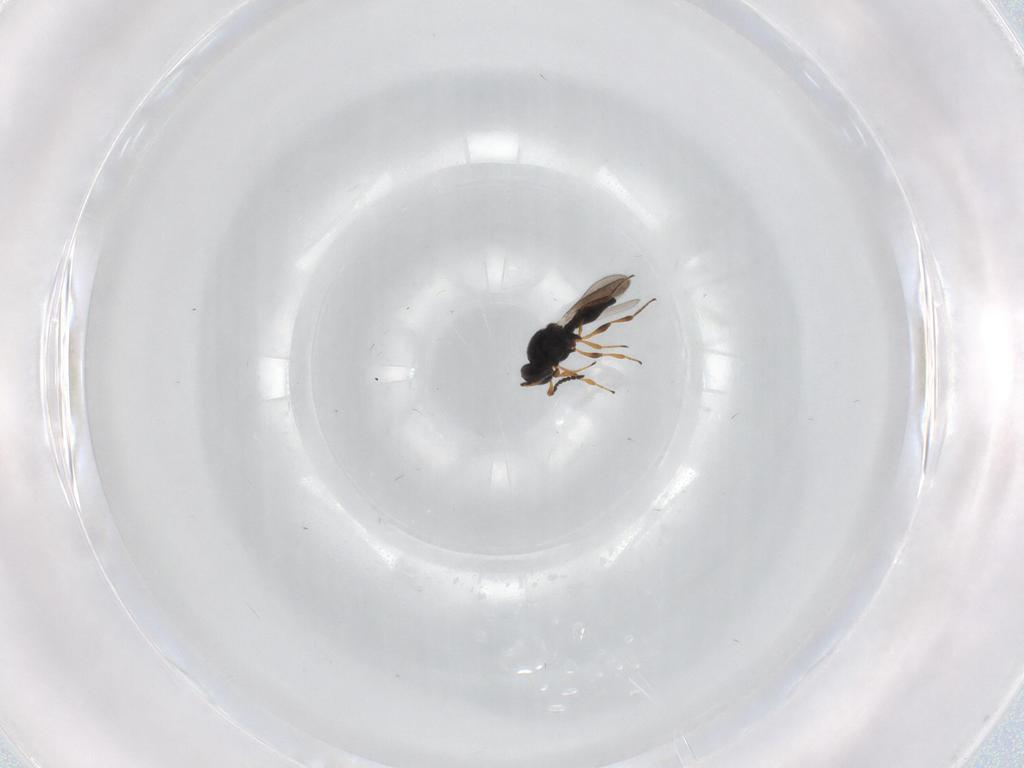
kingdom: Animalia
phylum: Arthropoda
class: Insecta
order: Hymenoptera
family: Platygastridae
